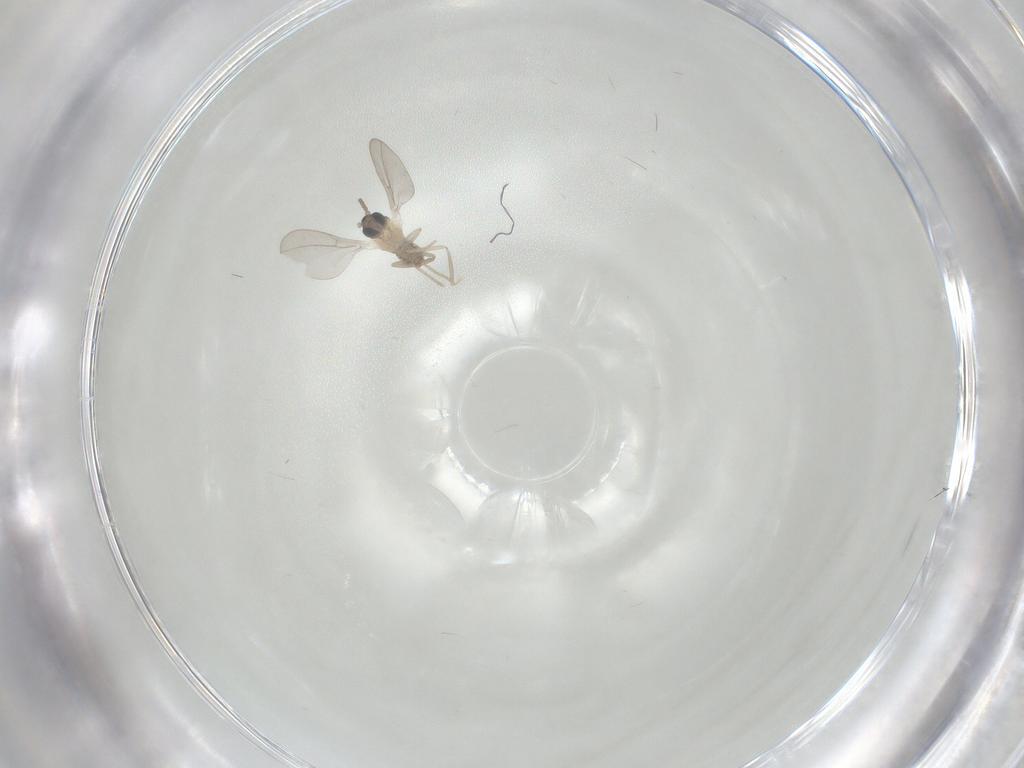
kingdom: Animalia
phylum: Arthropoda
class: Insecta
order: Diptera
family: Cecidomyiidae
